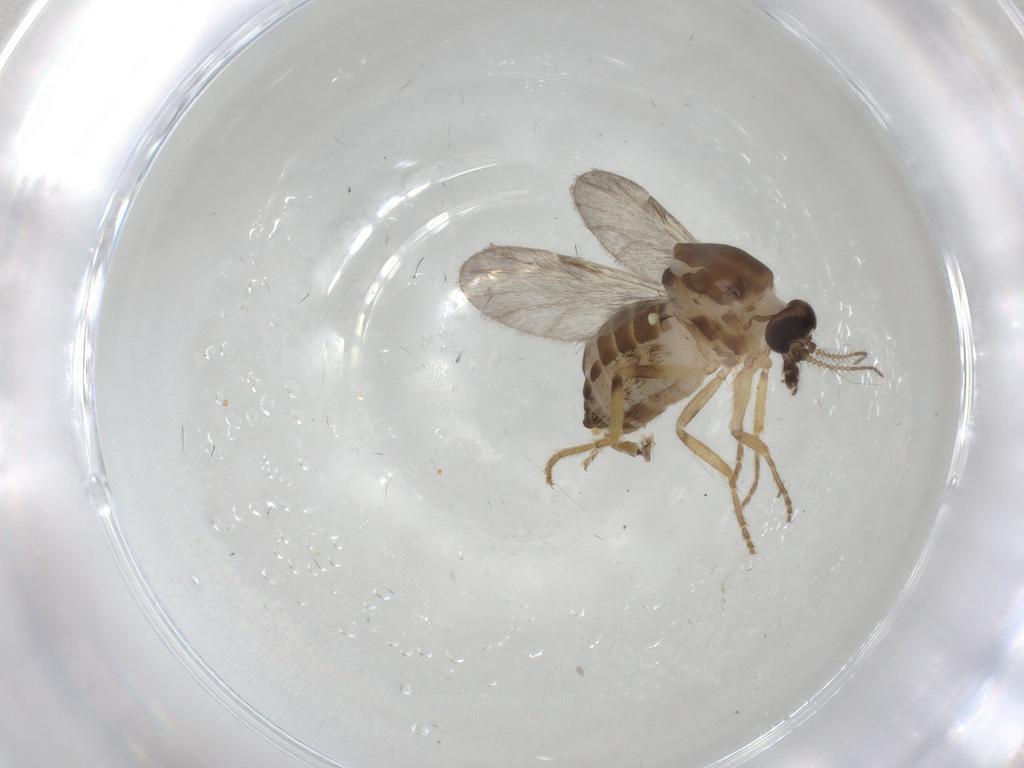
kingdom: Animalia
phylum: Arthropoda
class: Insecta
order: Diptera
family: Ceratopogonidae
